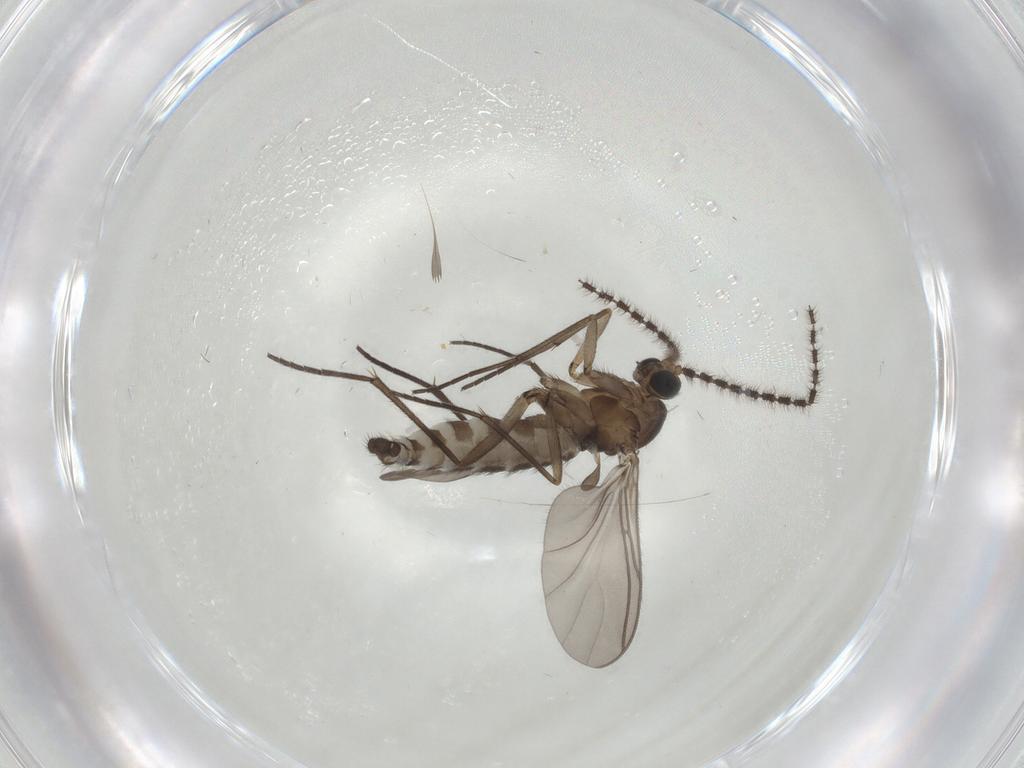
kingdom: Animalia
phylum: Arthropoda
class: Insecta
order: Diptera
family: Sciaridae
